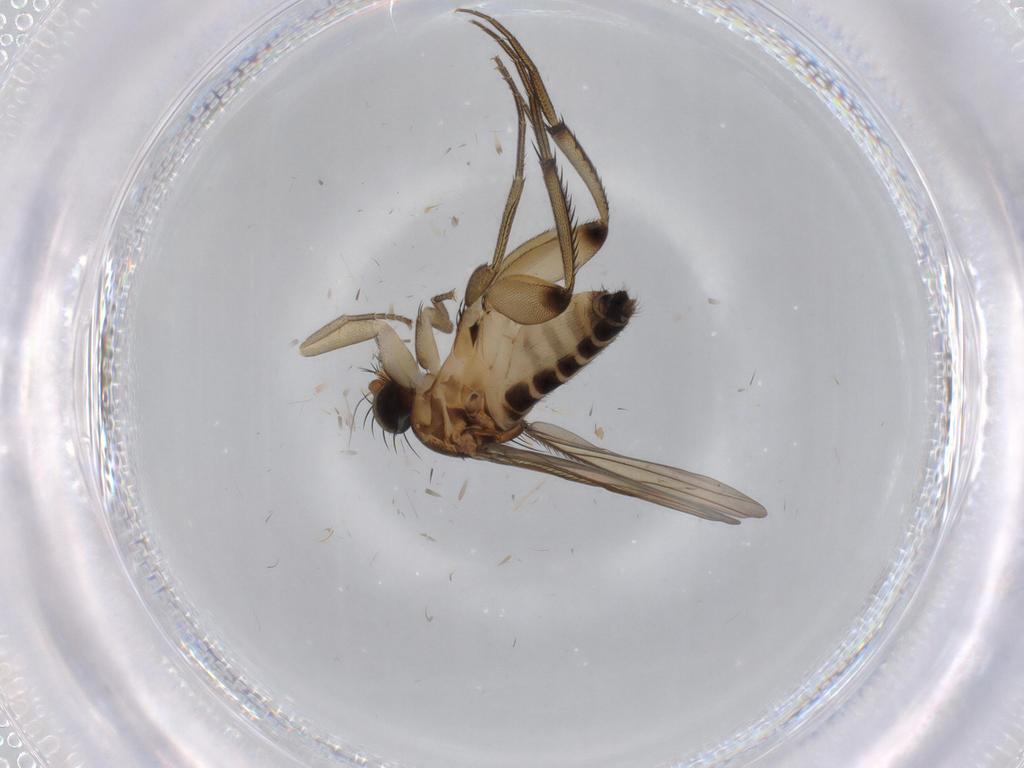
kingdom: Animalia
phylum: Arthropoda
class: Insecta
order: Diptera
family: Phoridae
